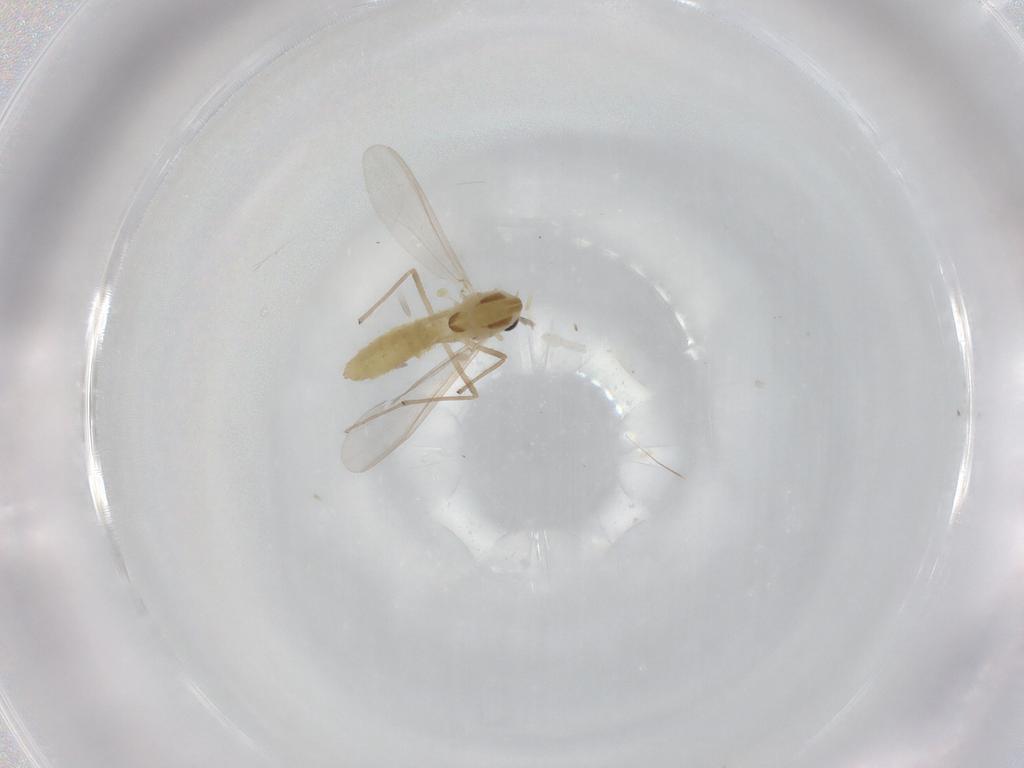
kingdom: Animalia
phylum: Arthropoda
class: Insecta
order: Diptera
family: Chironomidae
